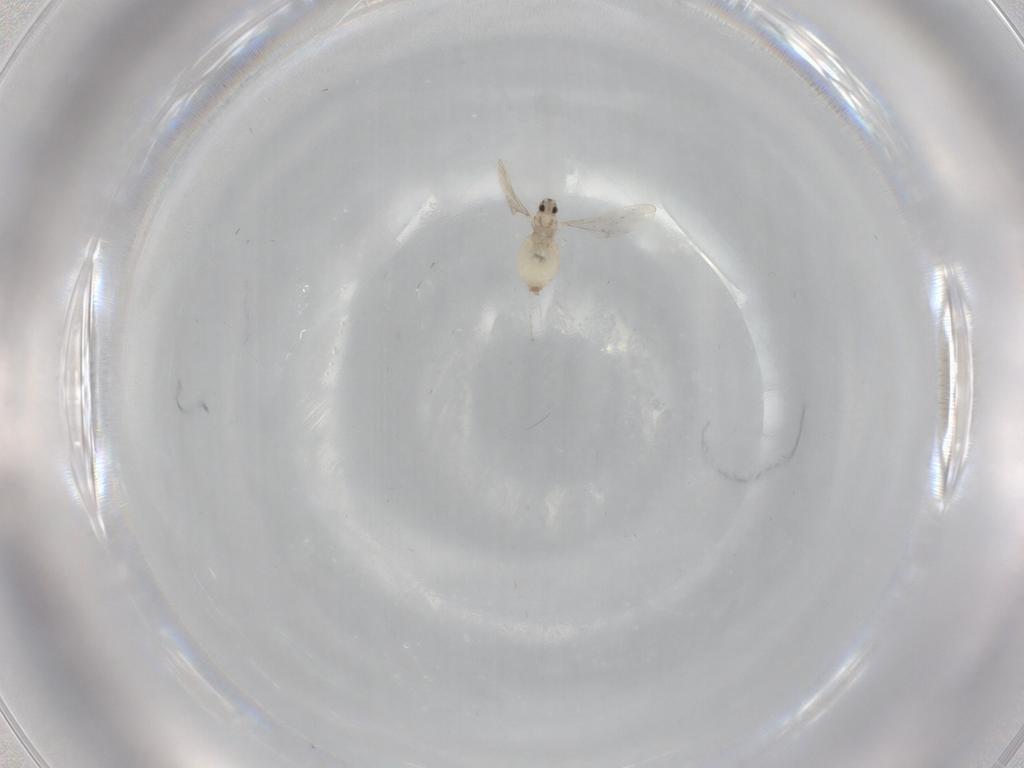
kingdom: Animalia
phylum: Arthropoda
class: Insecta
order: Diptera
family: Cecidomyiidae
